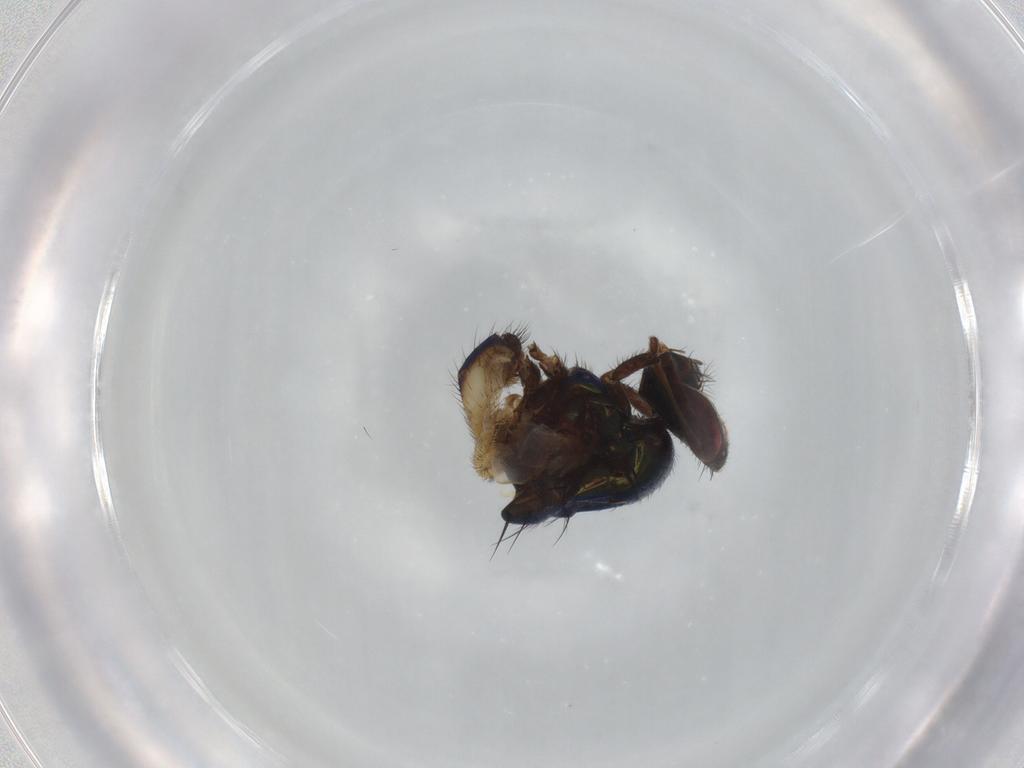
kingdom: Animalia
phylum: Arthropoda
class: Insecta
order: Diptera
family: Muscidae
